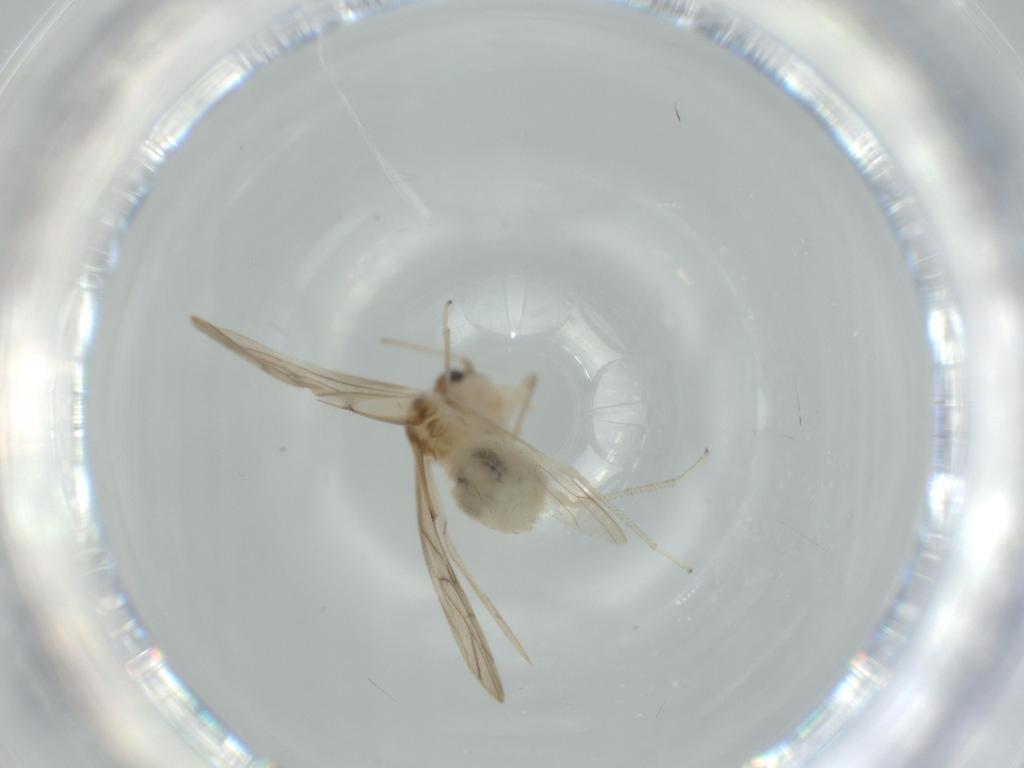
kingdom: Animalia
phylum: Arthropoda
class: Insecta
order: Psocodea
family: Caeciliusidae
